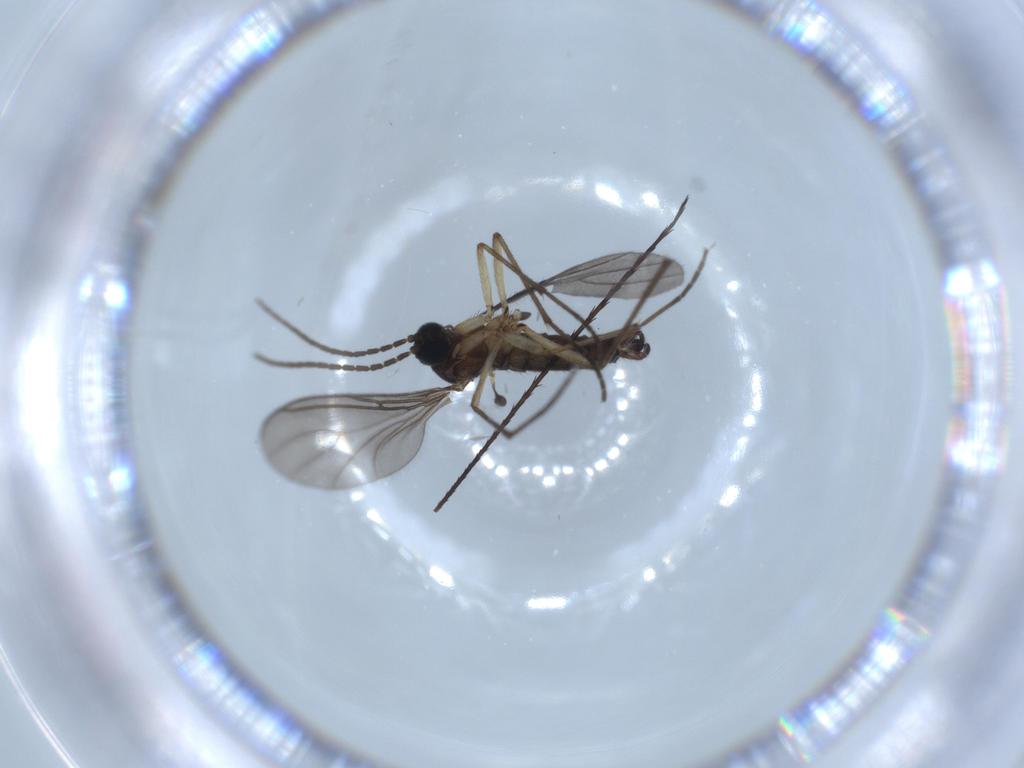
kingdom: Animalia
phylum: Arthropoda
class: Insecta
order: Diptera
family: Sciaridae
